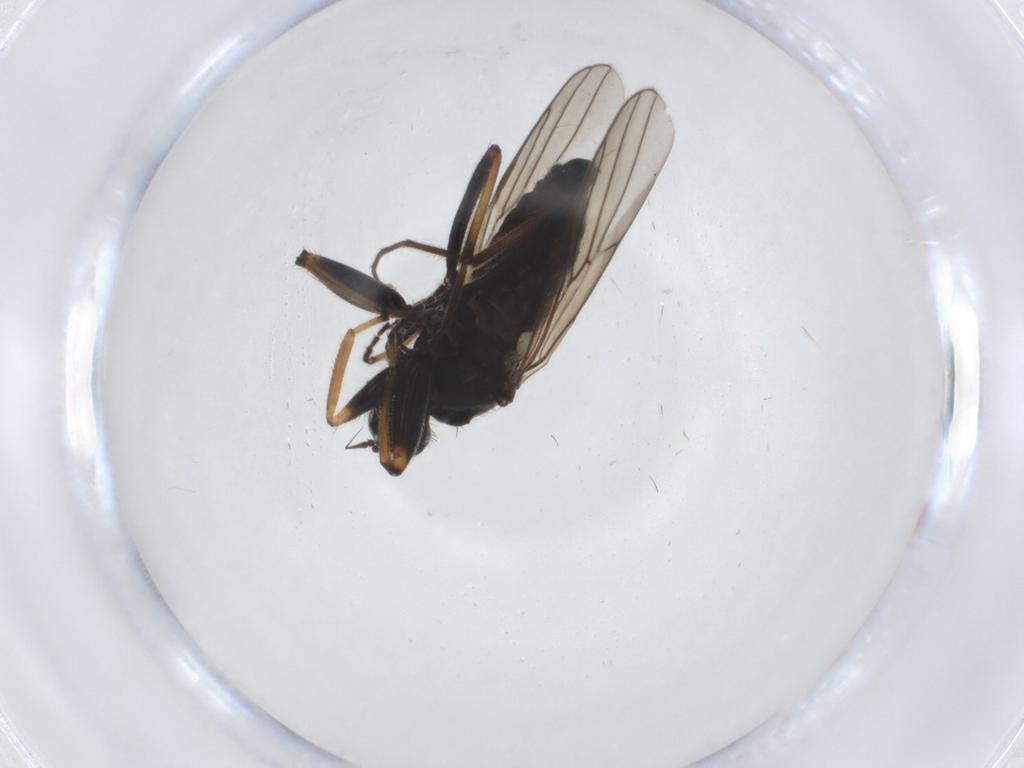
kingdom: Animalia
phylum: Arthropoda
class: Insecta
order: Diptera
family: Hybotidae
